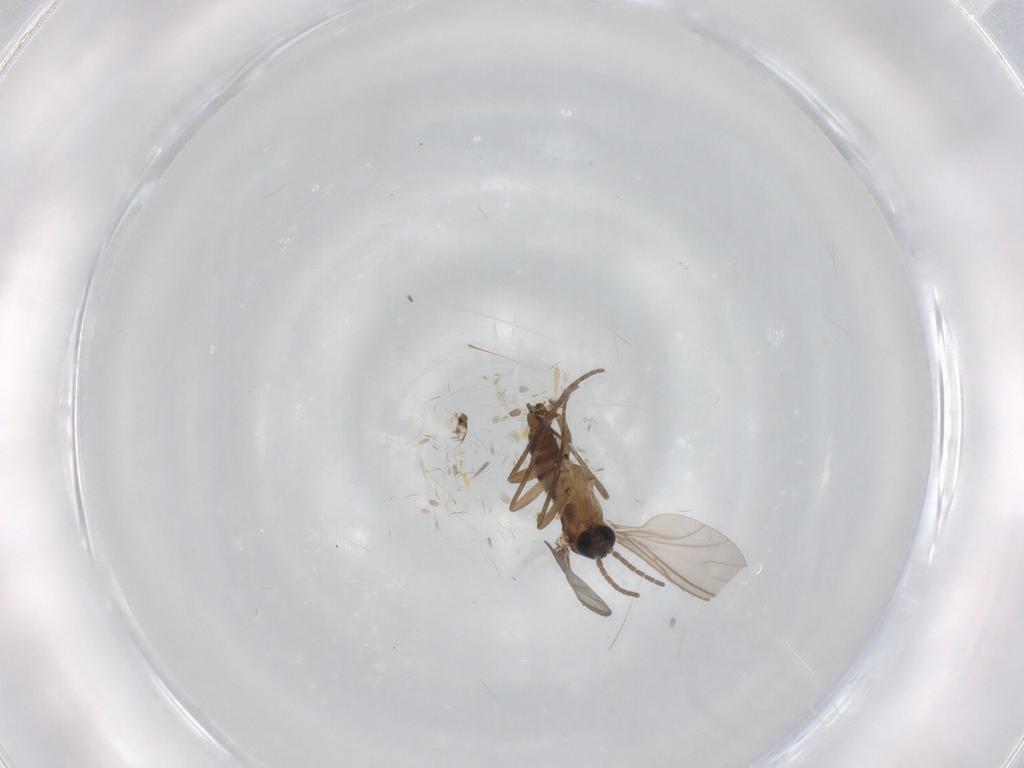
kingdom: Animalia
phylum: Arthropoda
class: Insecta
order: Diptera
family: Sciaridae
